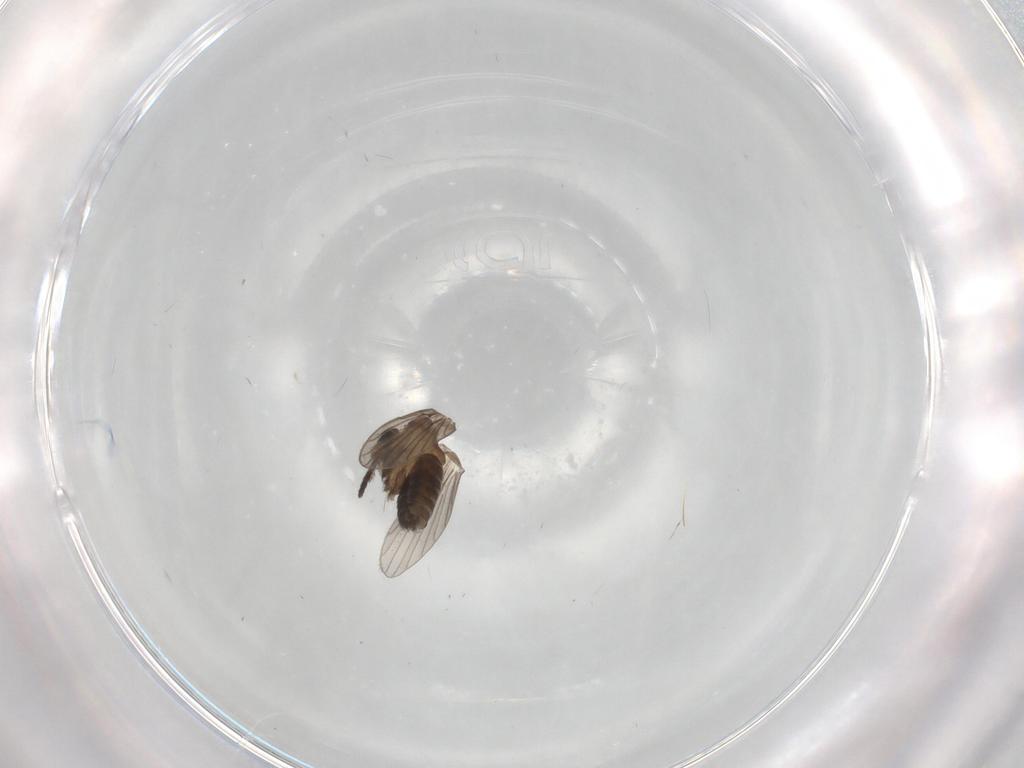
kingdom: Animalia
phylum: Arthropoda
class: Insecta
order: Diptera
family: Psychodidae
